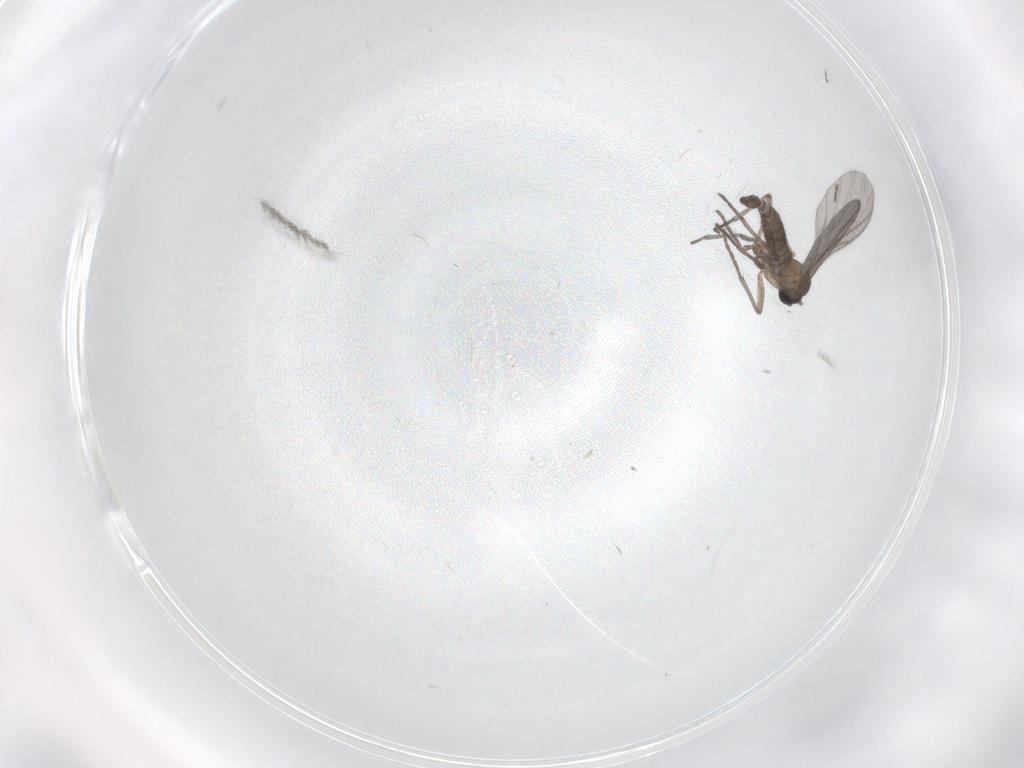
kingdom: Animalia
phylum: Arthropoda
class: Insecta
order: Diptera
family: Sciaridae
